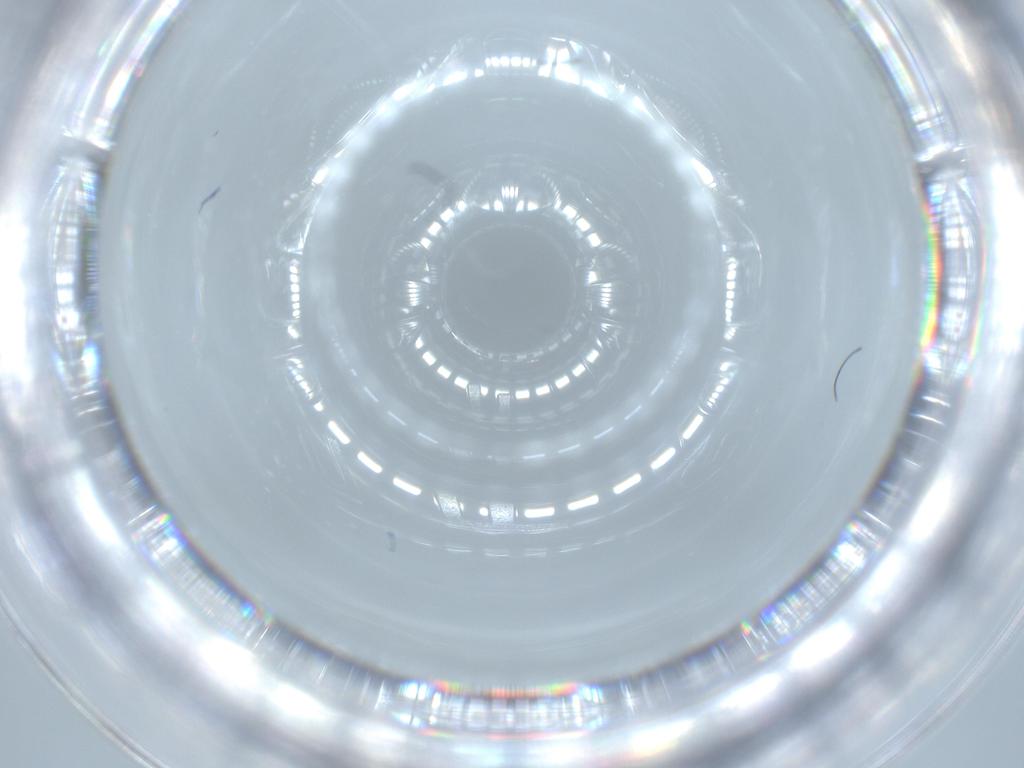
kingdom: Animalia
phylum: Arthropoda
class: Insecta
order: Diptera
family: Cecidomyiidae
